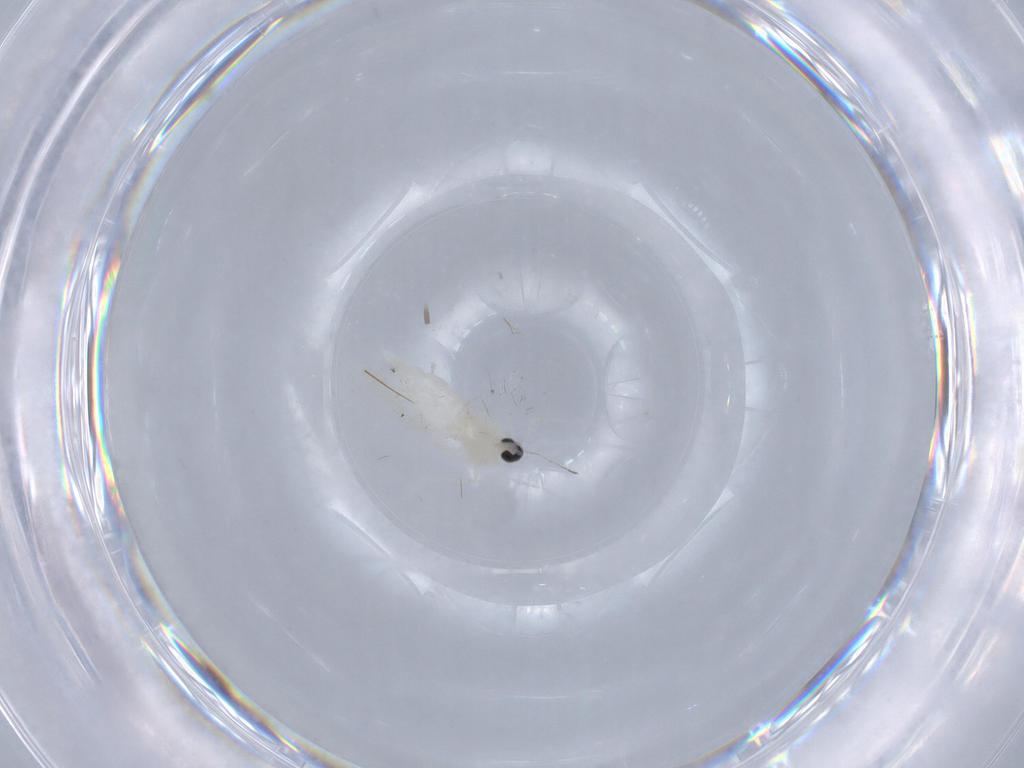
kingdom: Animalia
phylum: Arthropoda
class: Insecta
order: Diptera
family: Cecidomyiidae
